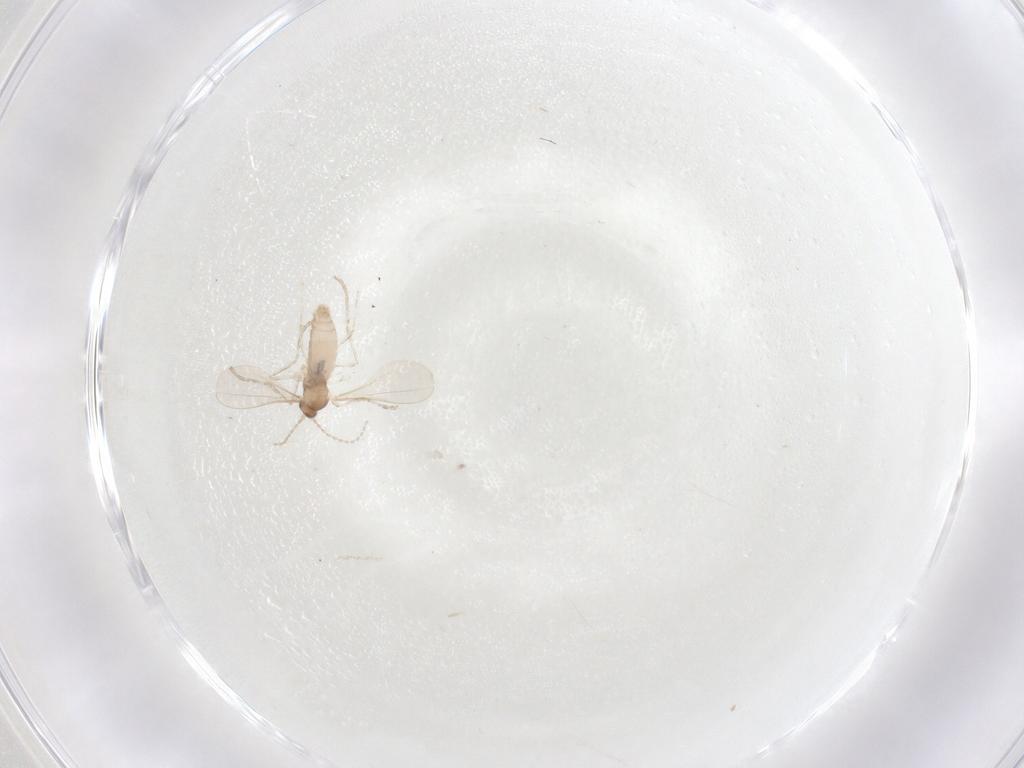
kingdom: Animalia
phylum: Arthropoda
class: Insecta
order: Diptera
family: Cecidomyiidae
